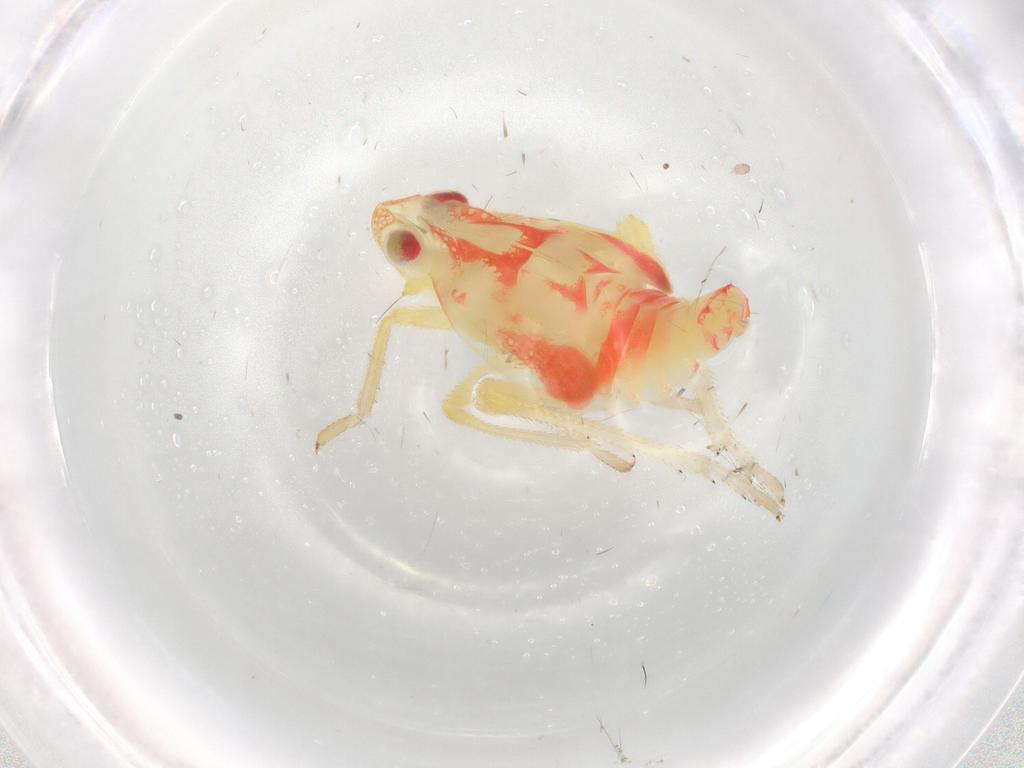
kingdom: Animalia
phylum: Arthropoda
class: Insecta
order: Hemiptera
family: Tropiduchidae
